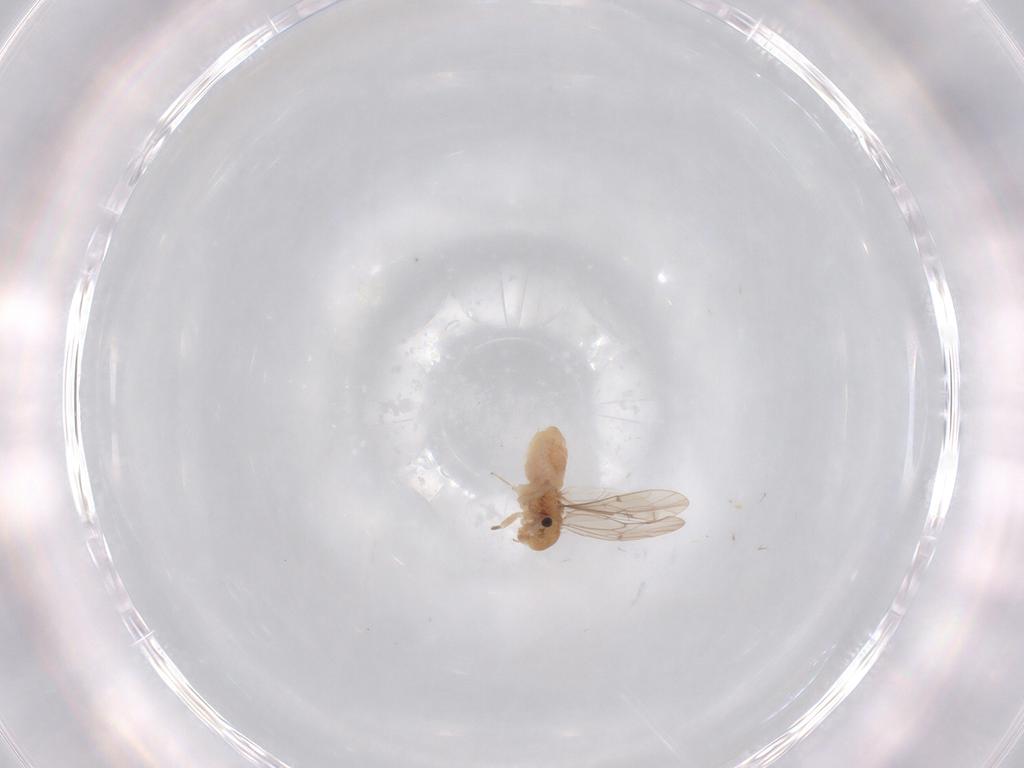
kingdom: Animalia
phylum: Arthropoda
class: Insecta
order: Psocodea
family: Ectopsocidae
